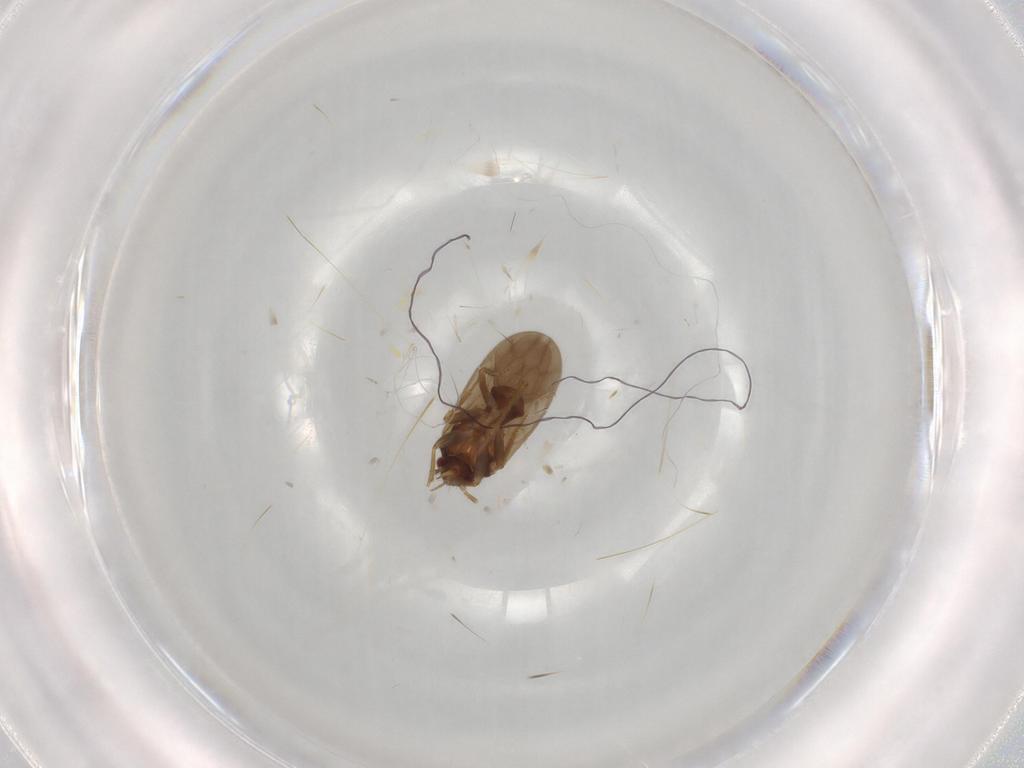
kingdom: Animalia
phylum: Arthropoda
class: Insecta
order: Hemiptera
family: Ceratocombidae
